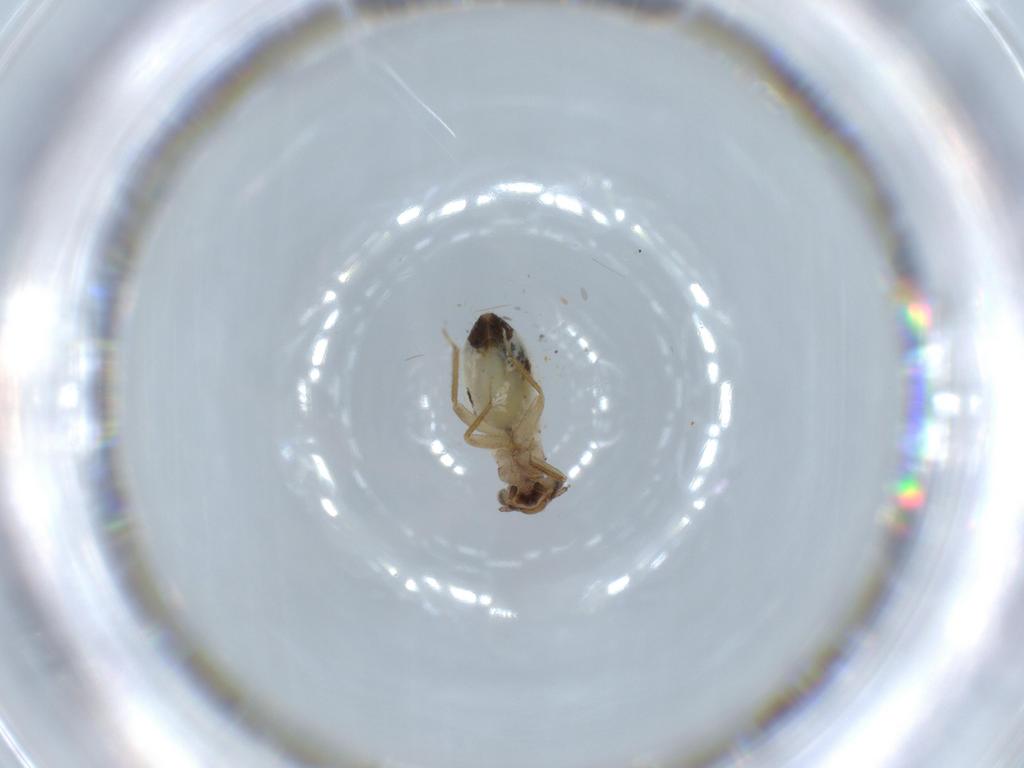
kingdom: Animalia
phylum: Arthropoda
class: Insecta
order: Psocodea
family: Lepidopsocidae
